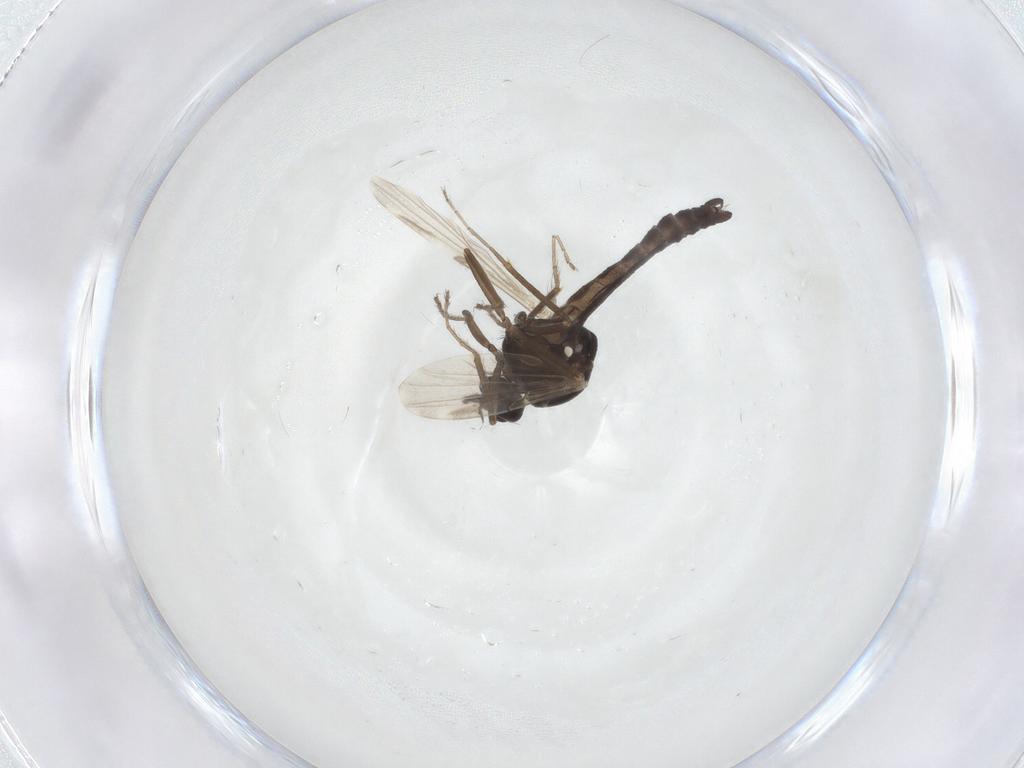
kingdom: Animalia
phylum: Arthropoda
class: Insecta
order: Diptera
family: Ceratopogonidae
